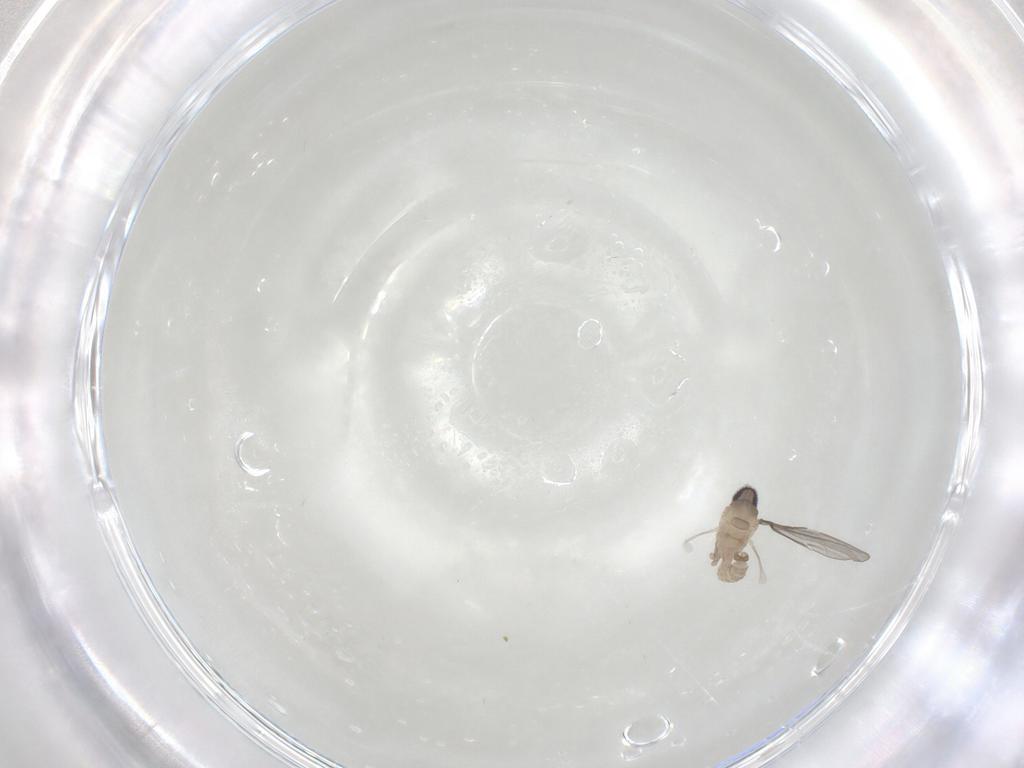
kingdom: Animalia
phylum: Arthropoda
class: Insecta
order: Diptera
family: Cecidomyiidae
